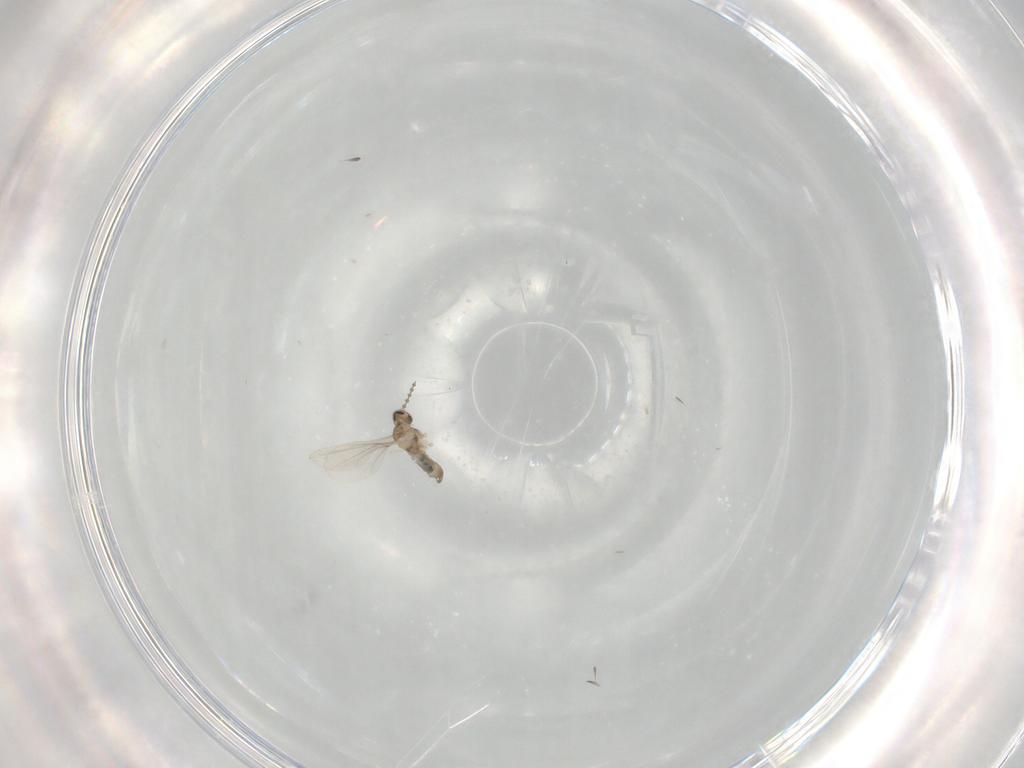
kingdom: Animalia
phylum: Arthropoda
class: Insecta
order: Diptera
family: Cecidomyiidae
